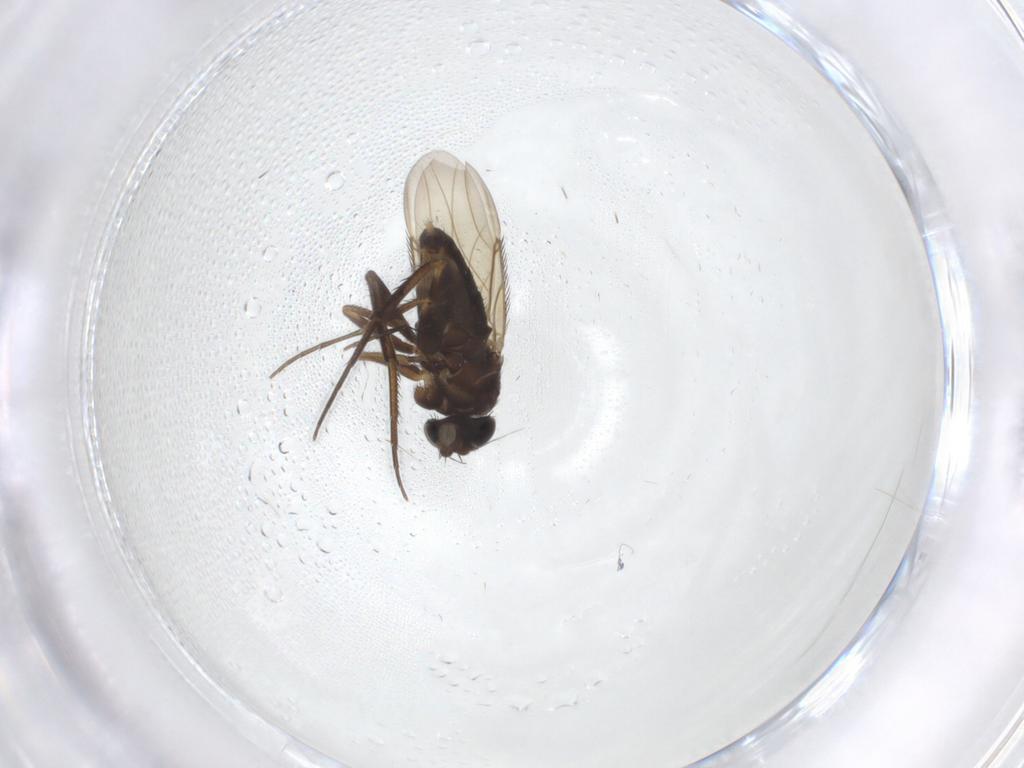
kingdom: Animalia
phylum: Arthropoda
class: Insecta
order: Diptera
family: Phoridae
